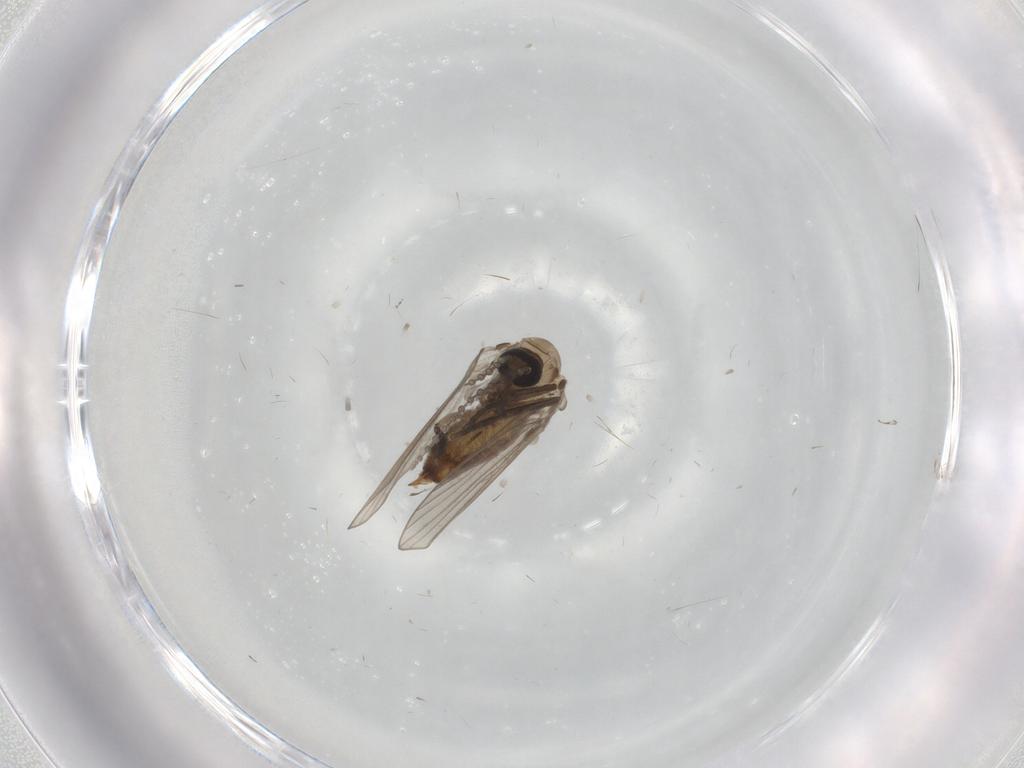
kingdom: Animalia
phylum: Arthropoda
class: Insecta
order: Diptera
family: Psychodidae
